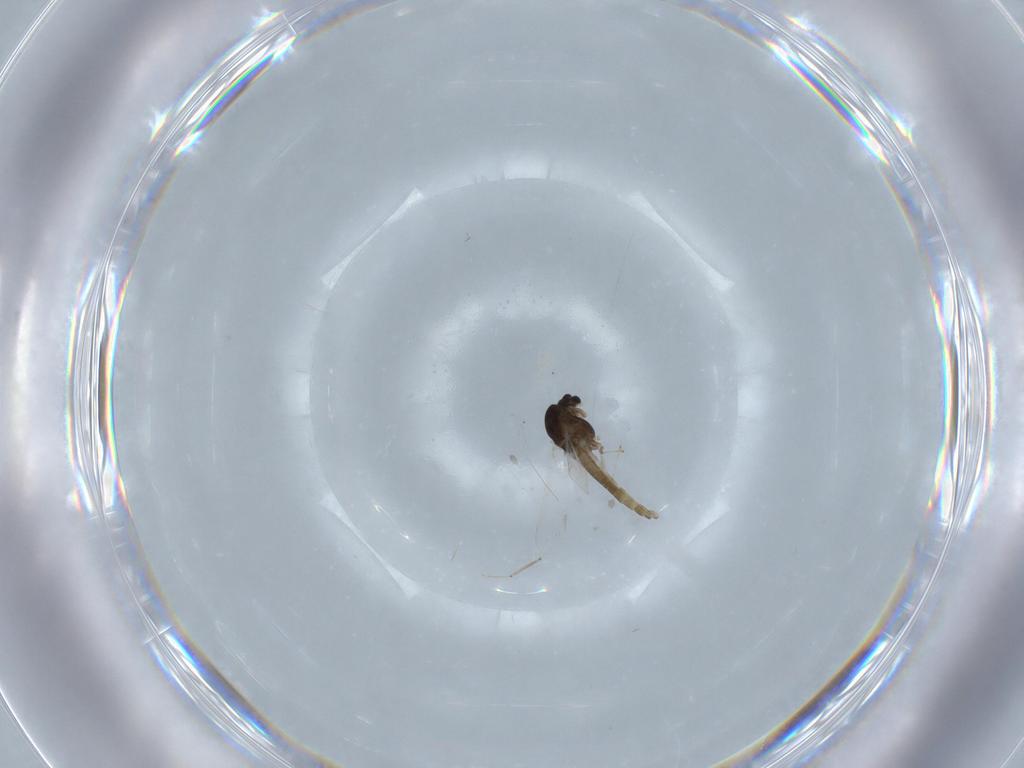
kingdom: Animalia
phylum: Arthropoda
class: Insecta
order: Diptera
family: Chironomidae
